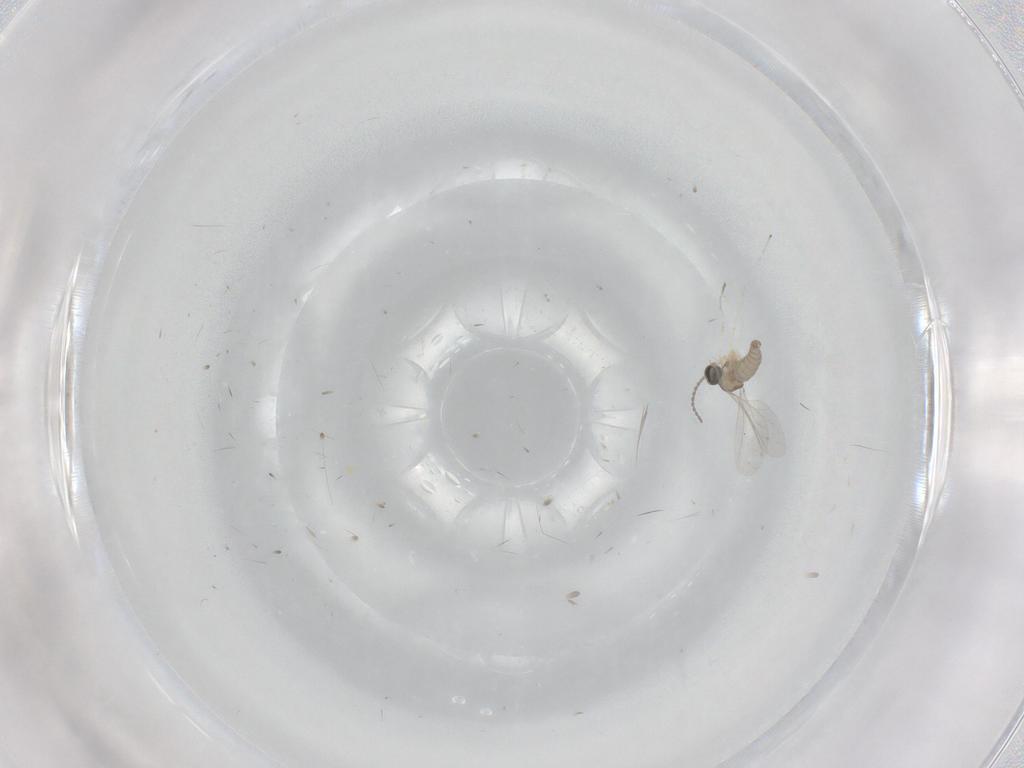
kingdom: Animalia
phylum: Arthropoda
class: Insecta
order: Diptera
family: Cecidomyiidae
